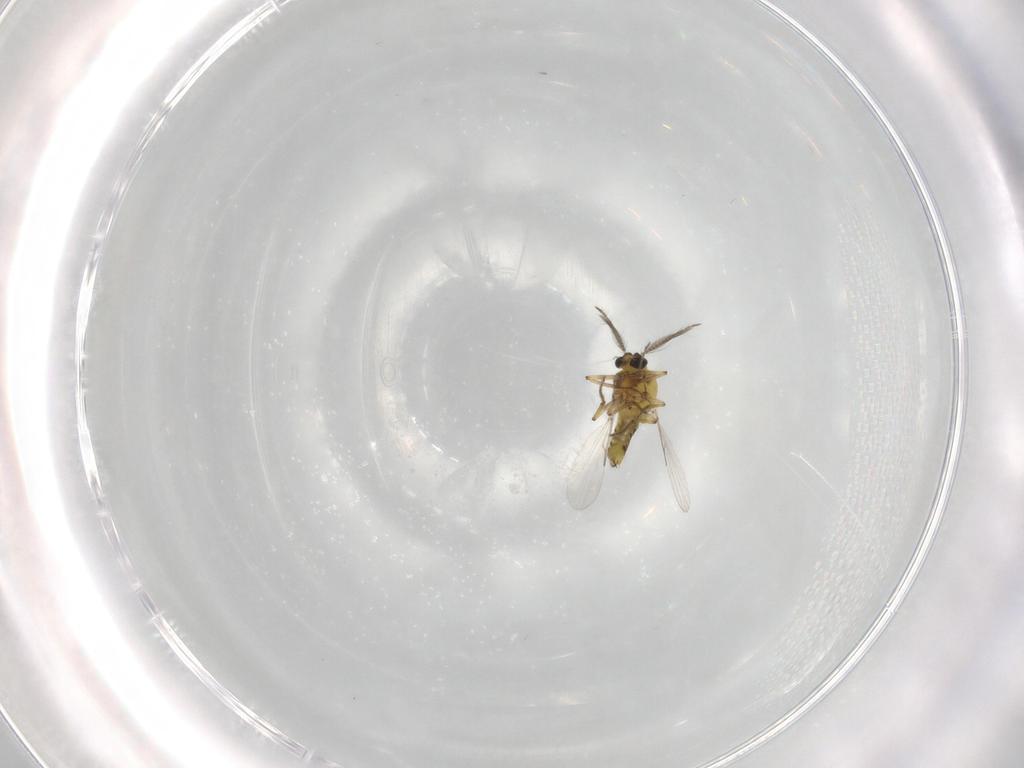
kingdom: Animalia
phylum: Arthropoda
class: Insecta
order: Diptera
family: Ceratopogonidae
